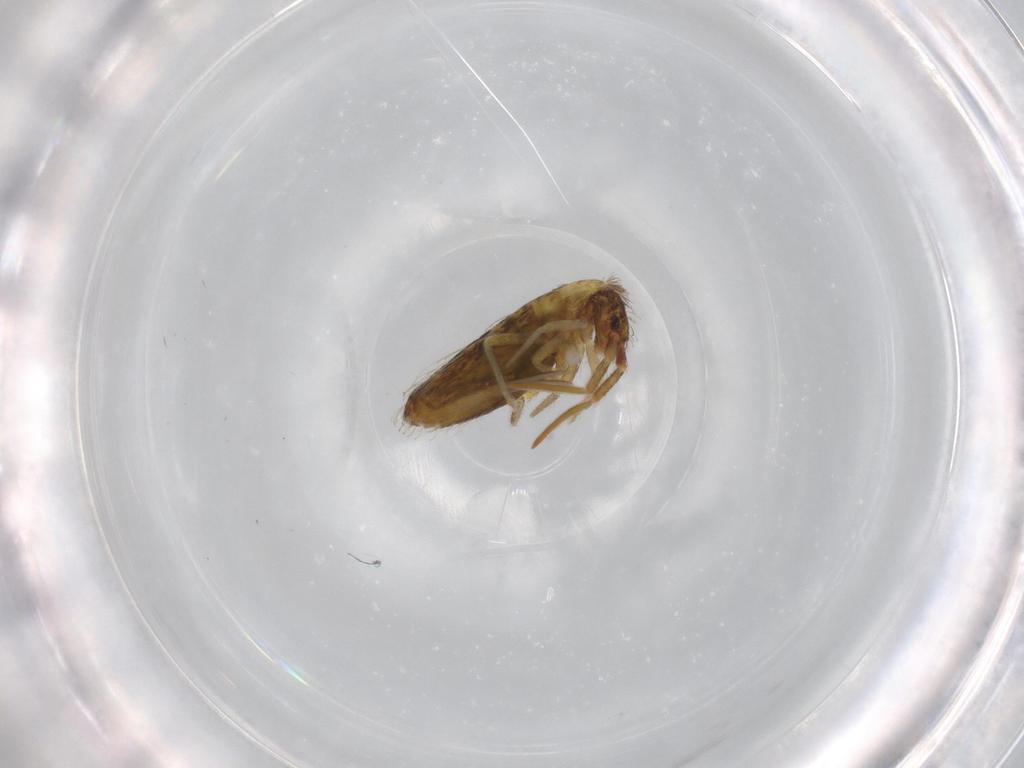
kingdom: Animalia
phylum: Arthropoda
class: Collembola
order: Entomobryomorpha
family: Entomobryidae
